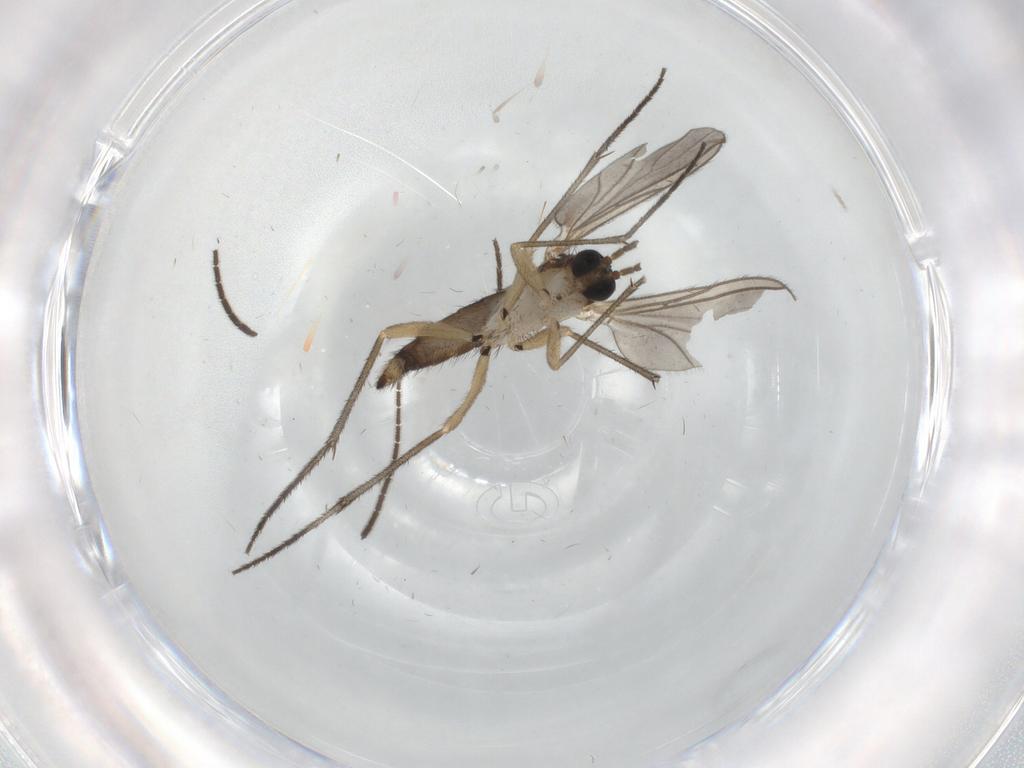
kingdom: Animalia
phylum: Arthropoda
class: Insecta
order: Diptera
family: Sciaridae
